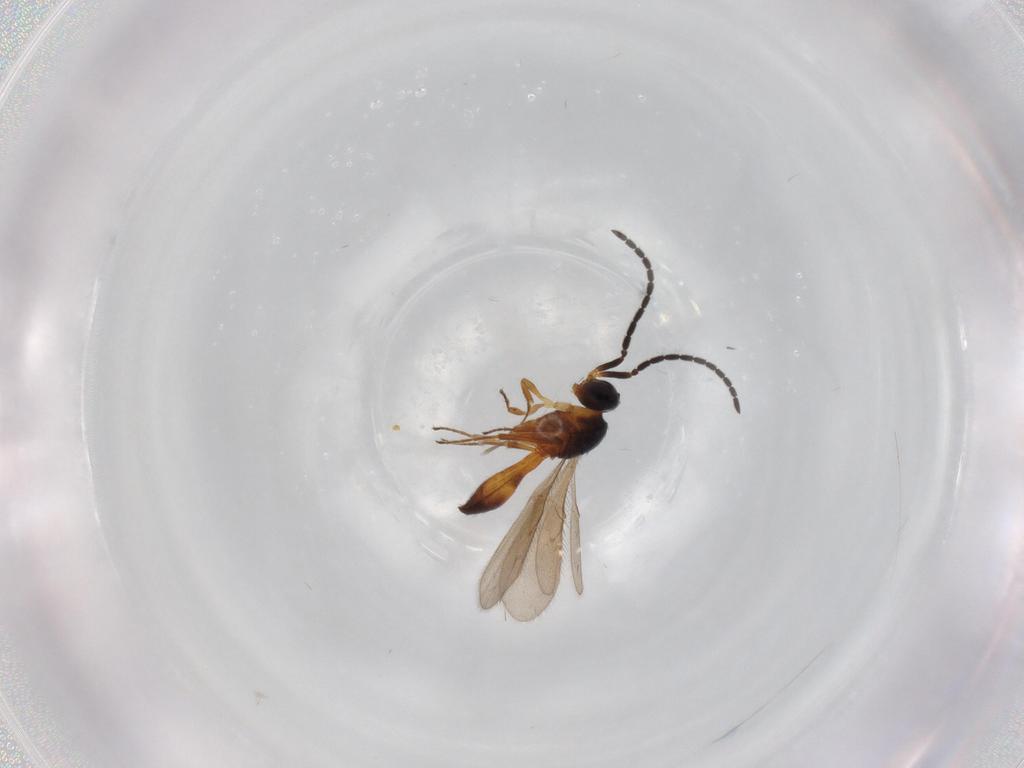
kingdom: Animalia
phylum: Arthropoda
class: Insecta
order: Hymenoptera
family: Scelionidae
